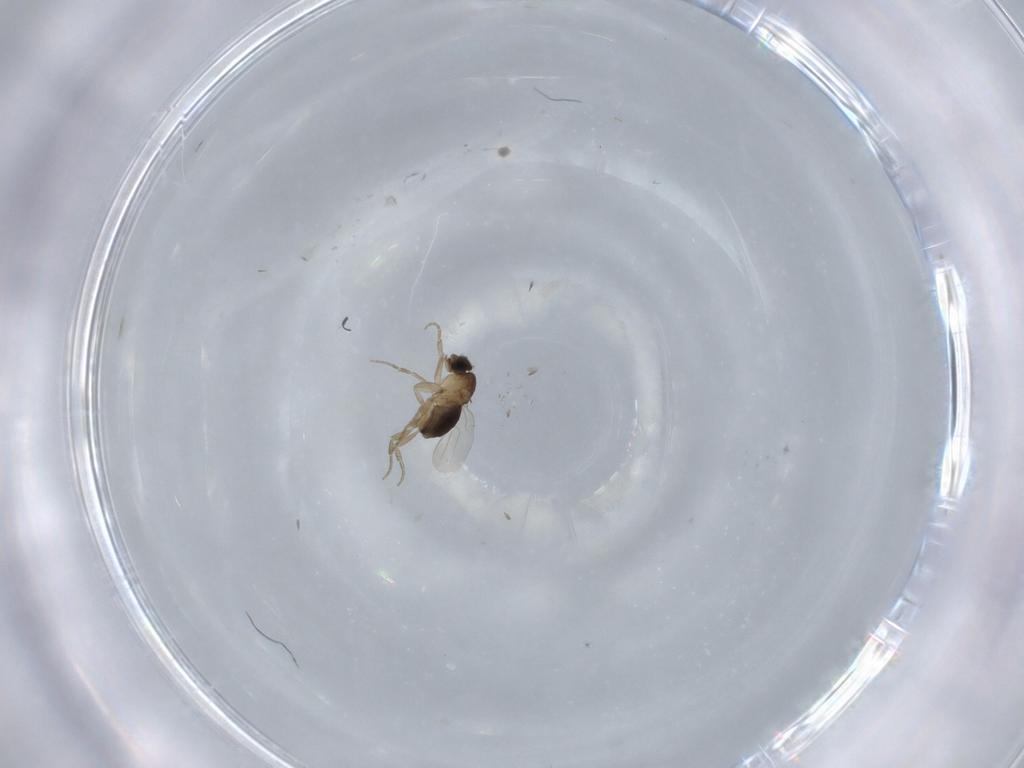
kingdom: Animalia
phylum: Arthropoda
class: Insecta
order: Diptera
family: Phoridae
